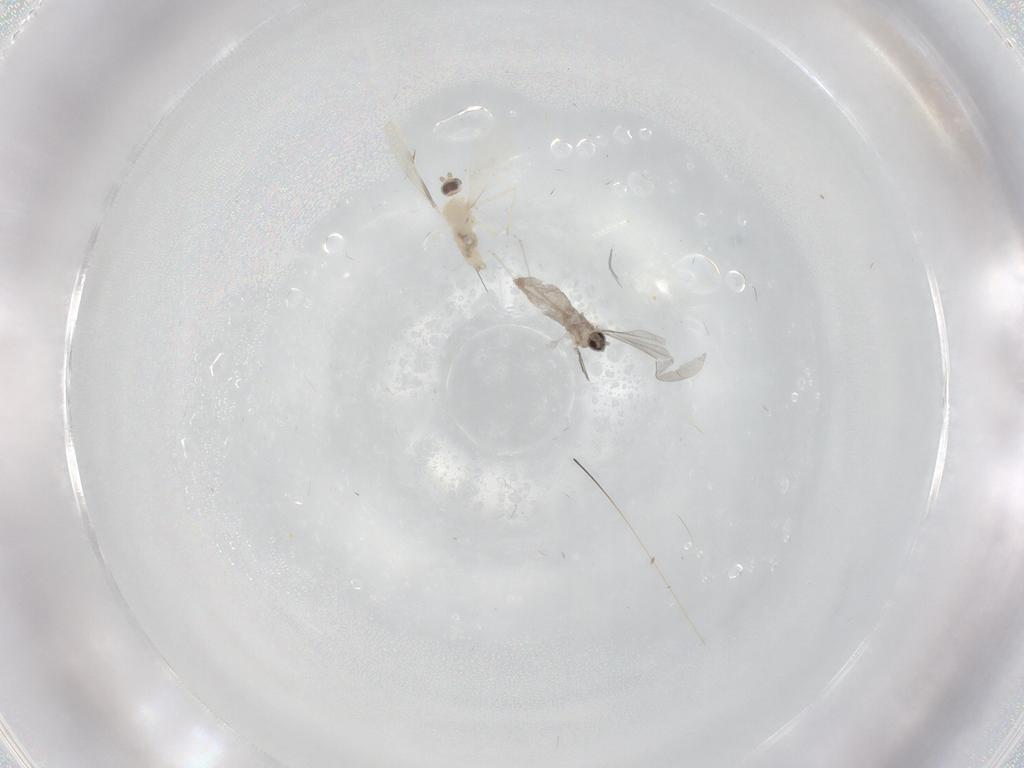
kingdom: Animalia
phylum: Arthropoda
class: Insecta
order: Diptera
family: Cecidomyiidae
